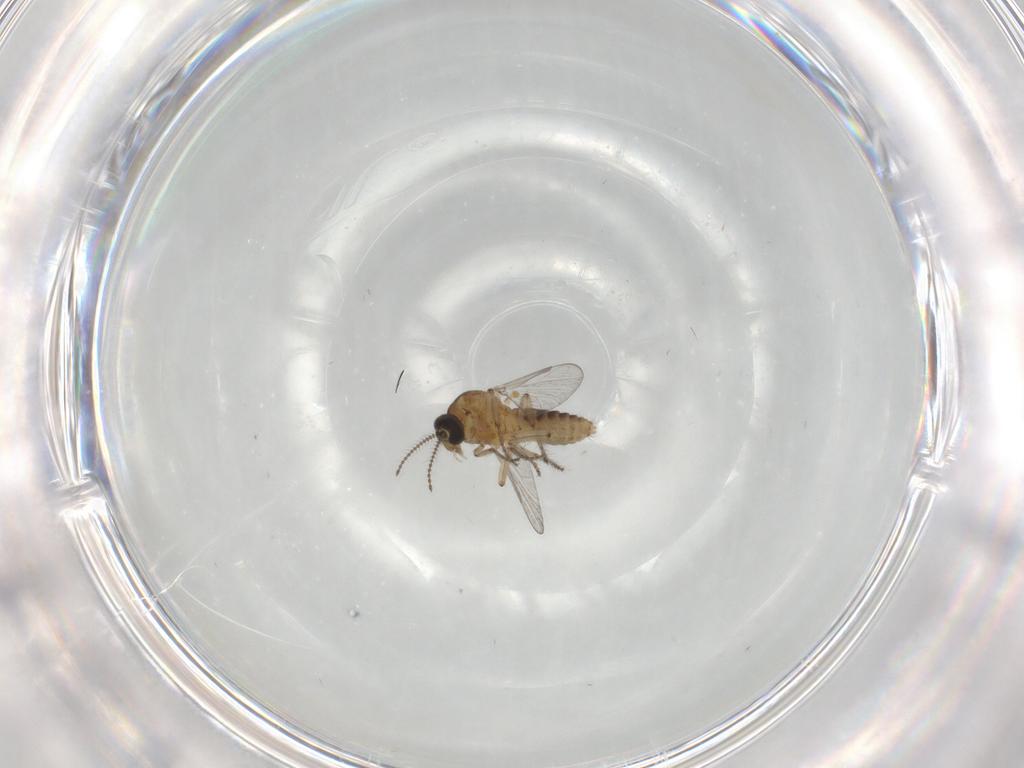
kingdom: Animalia
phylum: Arthropoda
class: Insecta
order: Diptera
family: Ceratopogonidae
